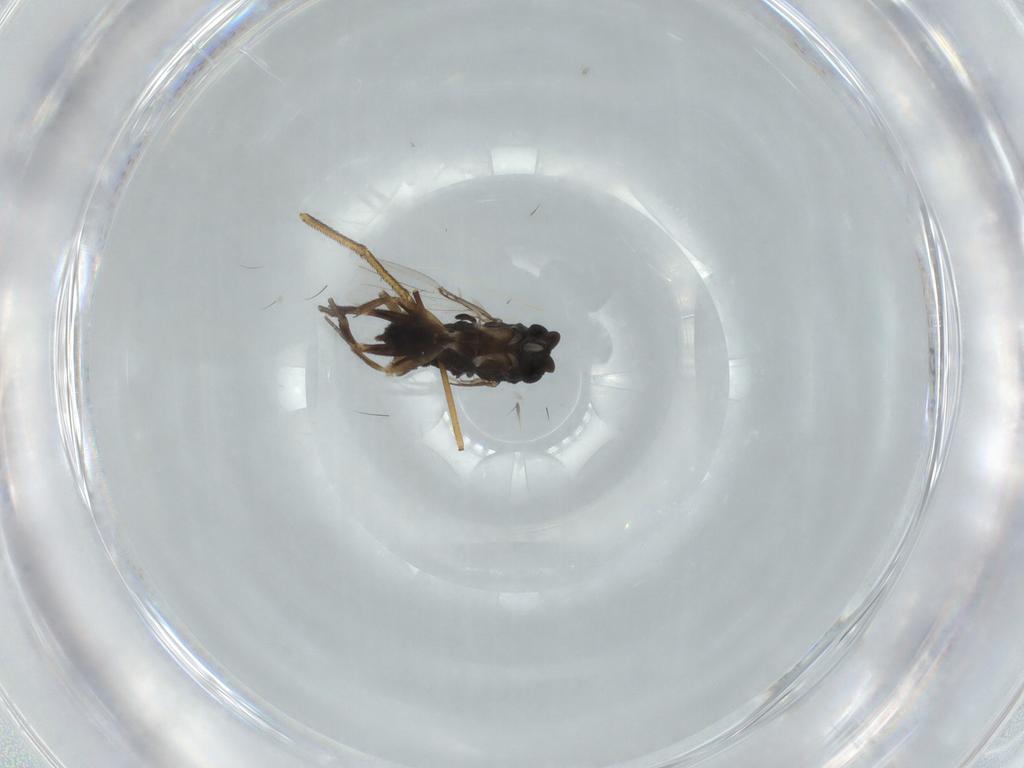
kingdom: Animalia
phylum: Arthropoda
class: Insecta
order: Diptera
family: Phoridae
